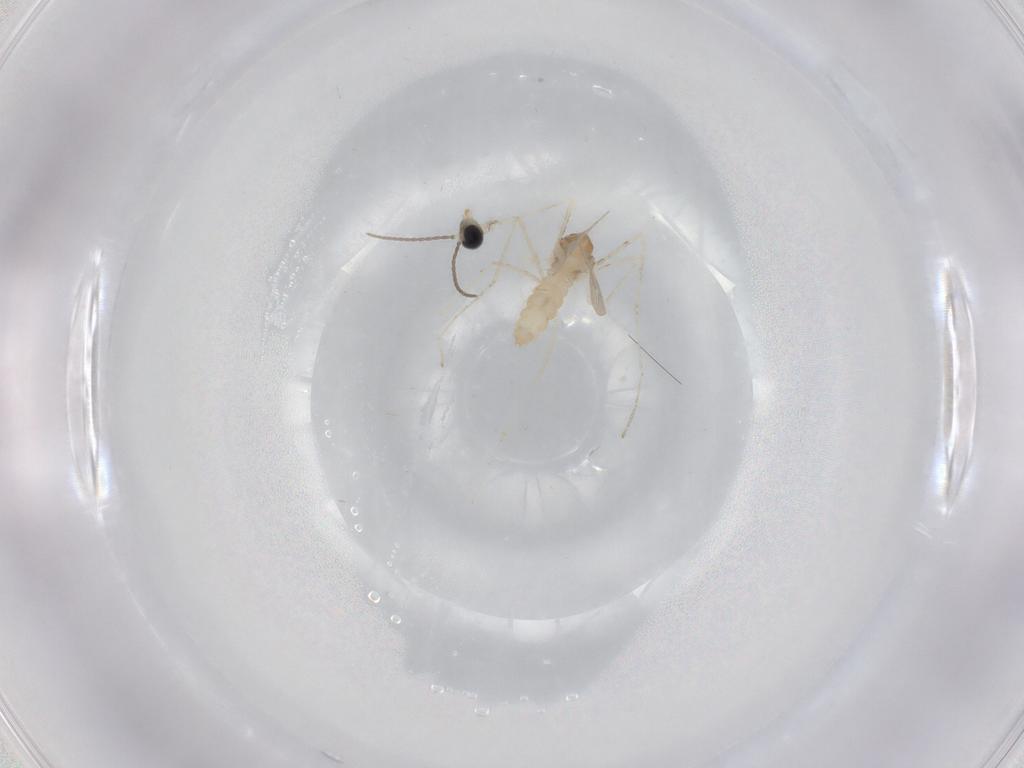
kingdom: Animalia
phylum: Arthropoda
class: Insecta
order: Diptera
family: Cecidomyiidae
